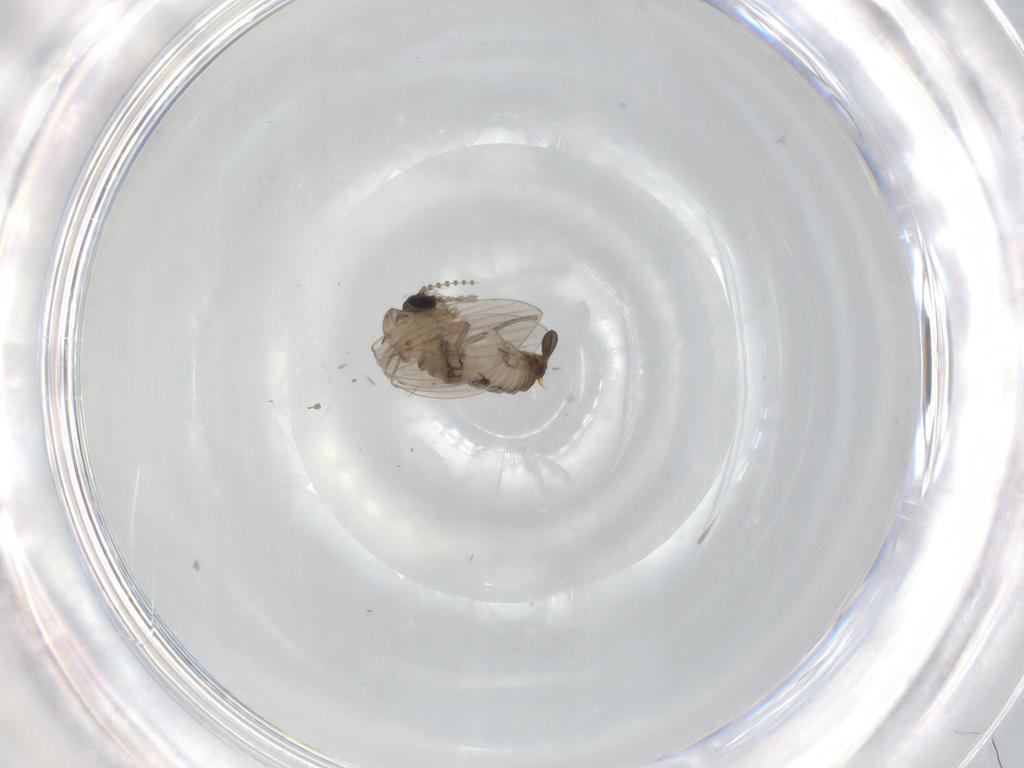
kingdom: Animalia
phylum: Arthropoda
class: Insecta
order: Diptera
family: Psychodidae
